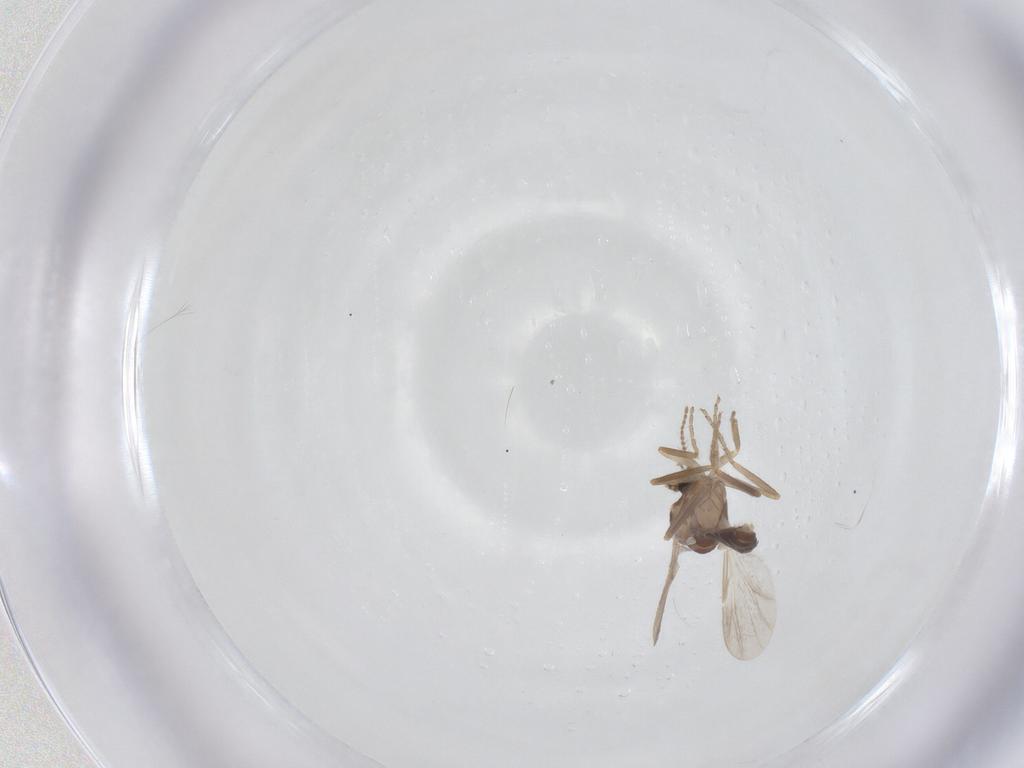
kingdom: Animalia
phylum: Arthropoda
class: Insecta
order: Diptera
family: Ceratopogonidae
